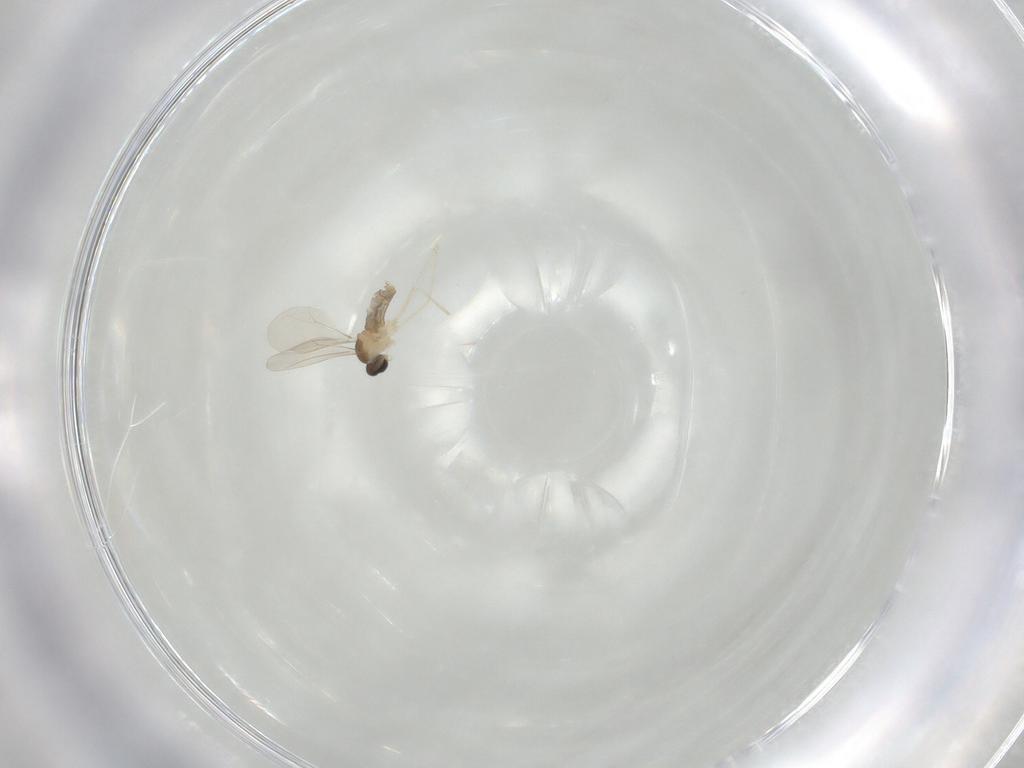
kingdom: Animalia
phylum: Arthropoda
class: Insecta
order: Diptera
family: Cecidomyiidae
